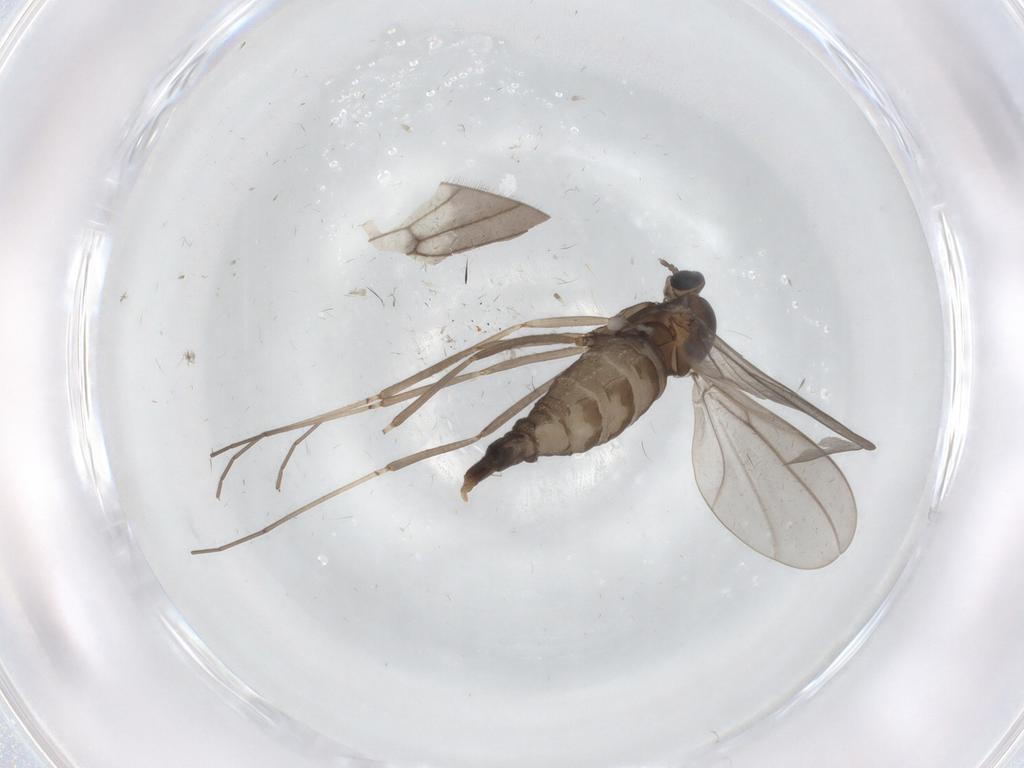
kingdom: Animalia
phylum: Arthropoda
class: Insecta
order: Diptera
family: Cecidomyiidae
